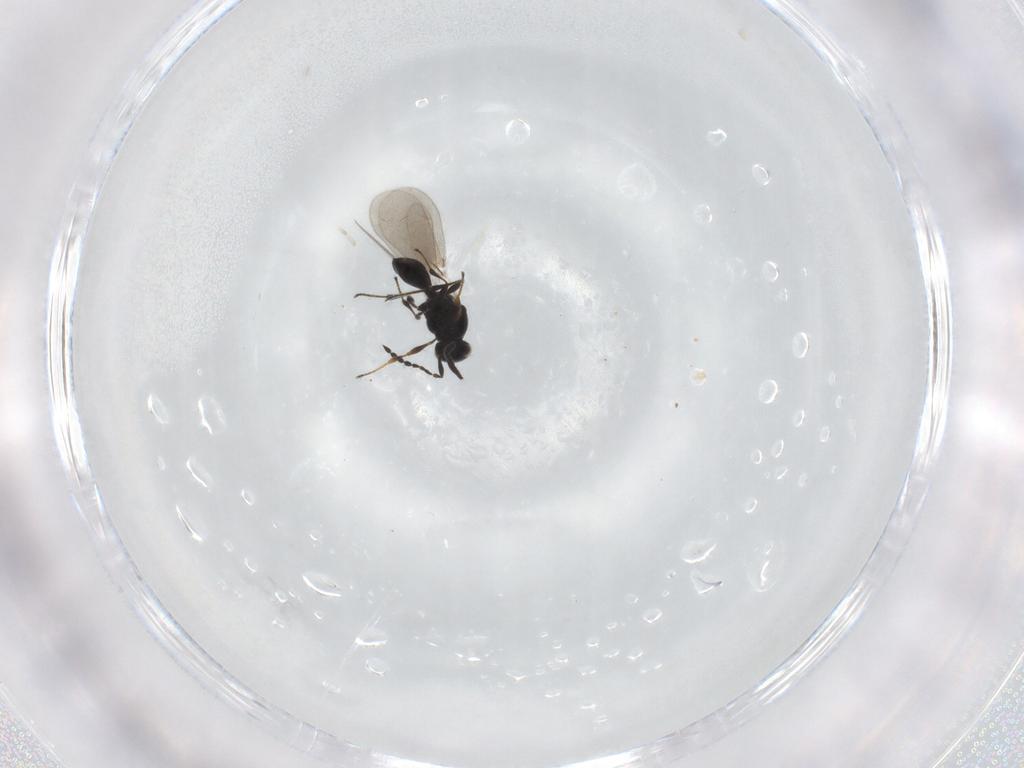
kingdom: Animalia
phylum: Arthropoda
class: Insecta
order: Hymenoptera
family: Platygastridae
